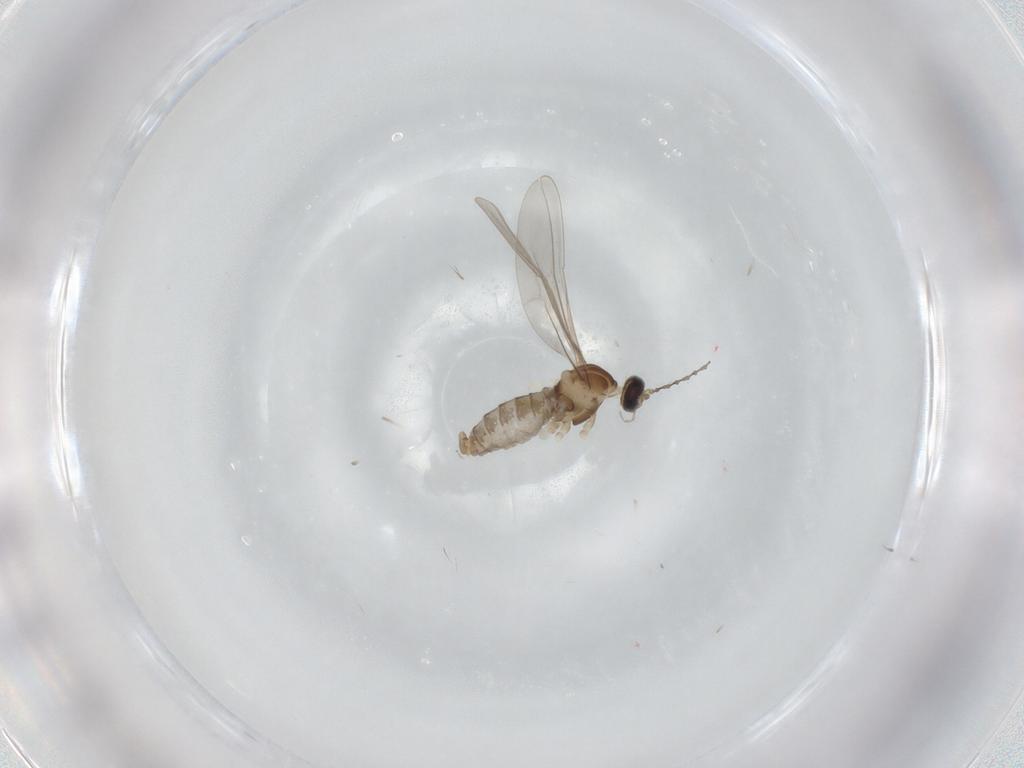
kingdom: Animalia
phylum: Arthropoda
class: Insecta
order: Diptera
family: Cecidomyiidae
